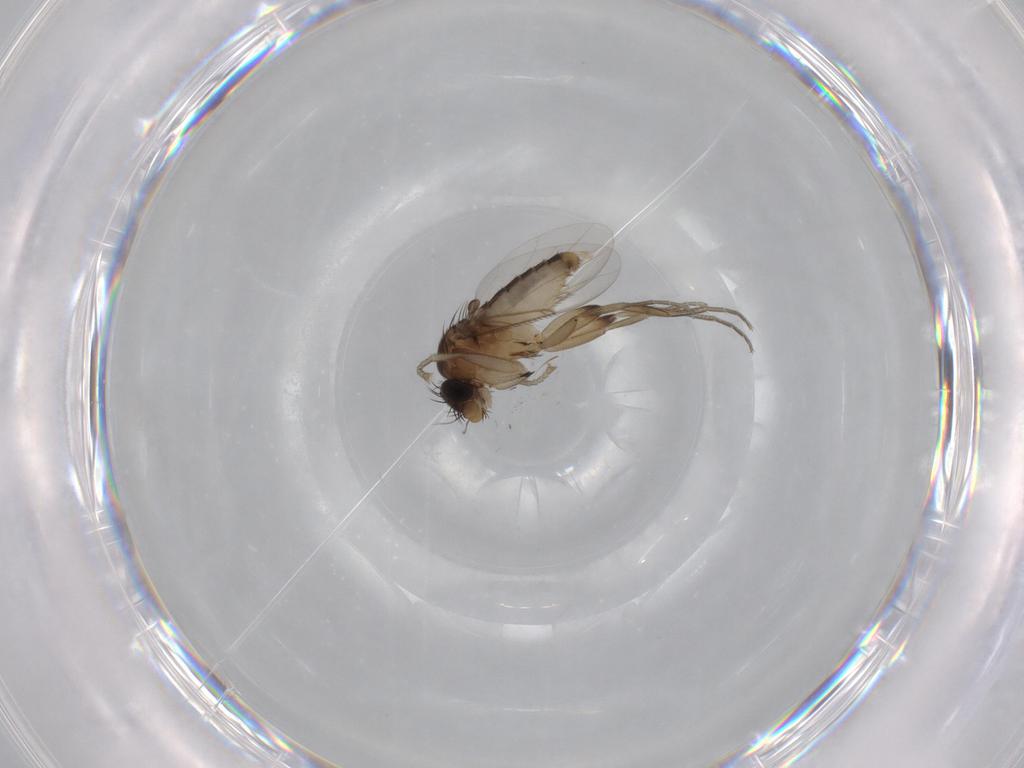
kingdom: Animalia
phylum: Arthropoda
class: Insecta
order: Diptera
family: Phoridae
